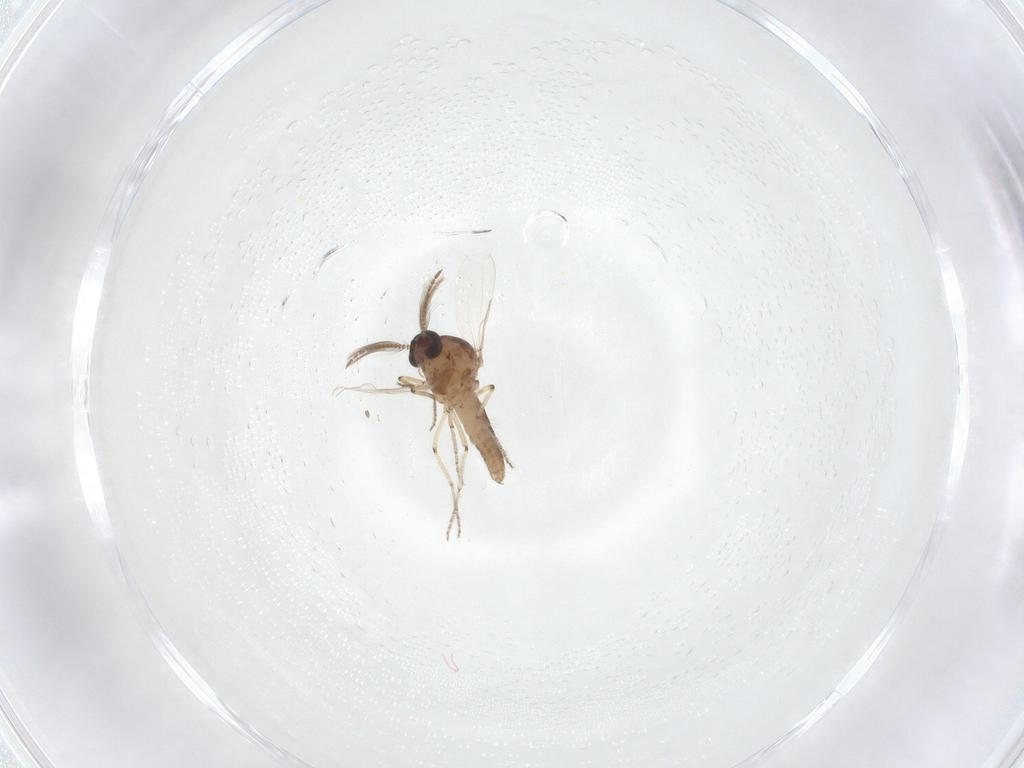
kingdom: Animalia
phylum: Arthropoda
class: Insecta
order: Diptera
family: Ceratopogonidae
